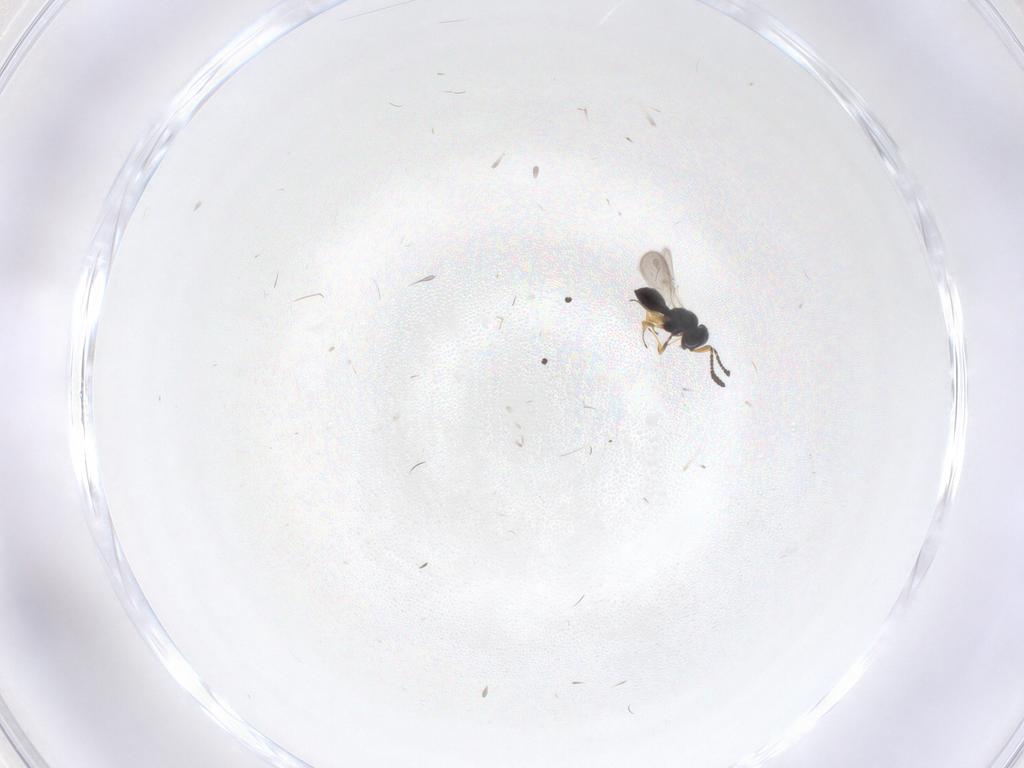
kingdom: Animalia
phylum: Arthropoda
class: Insecta
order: Hymenoptera
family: Scelionidae
